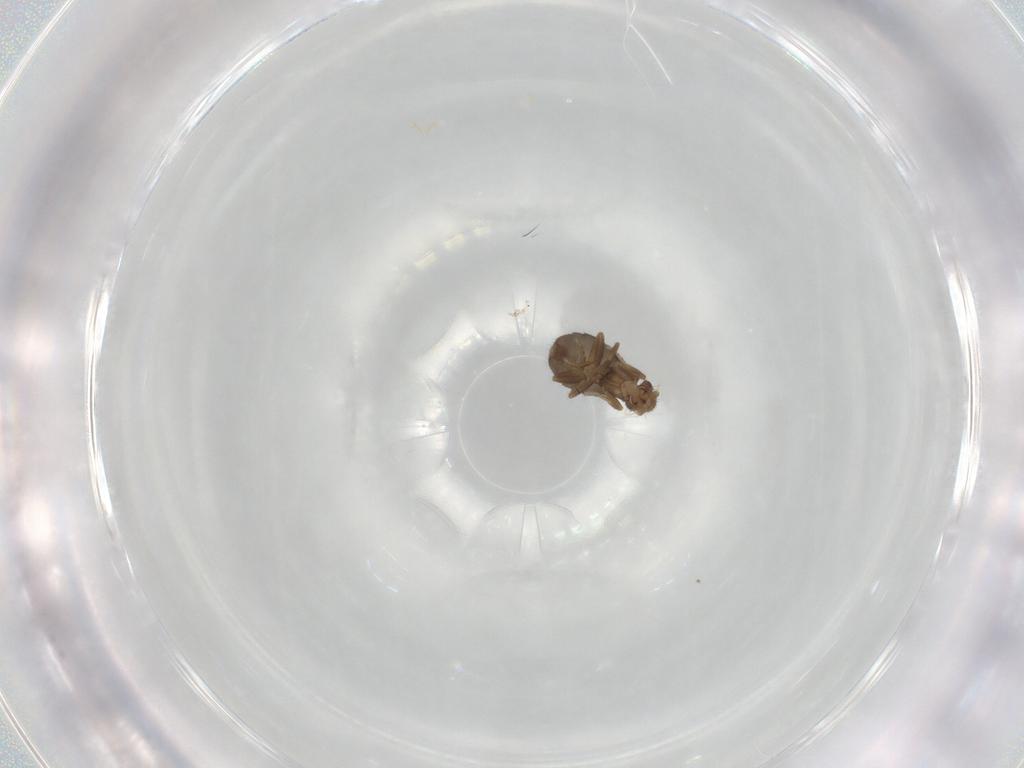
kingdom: Animalia
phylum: Arthropoda
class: Insecta
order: Diptera
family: Phoridae
